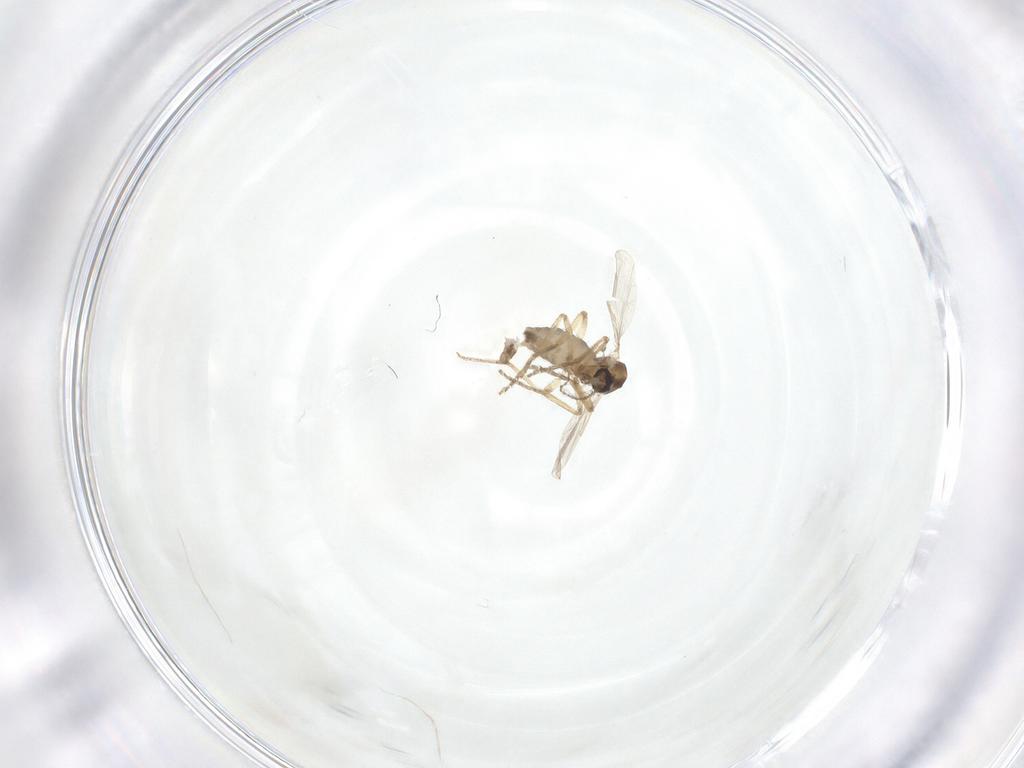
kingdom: Animalia
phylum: Arthropoda
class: Insecta
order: Diptera
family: Ceratopogonidae
